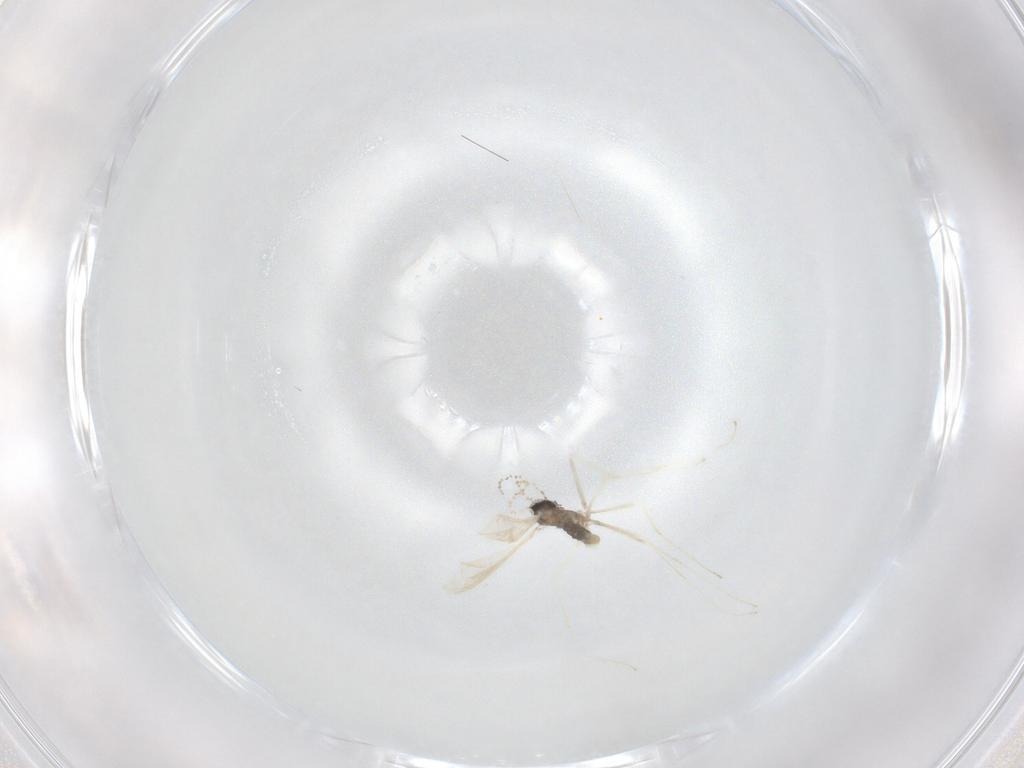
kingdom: Animalia
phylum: Arthropoda
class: Insecta
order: Diptera
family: Cecidomyiidae
